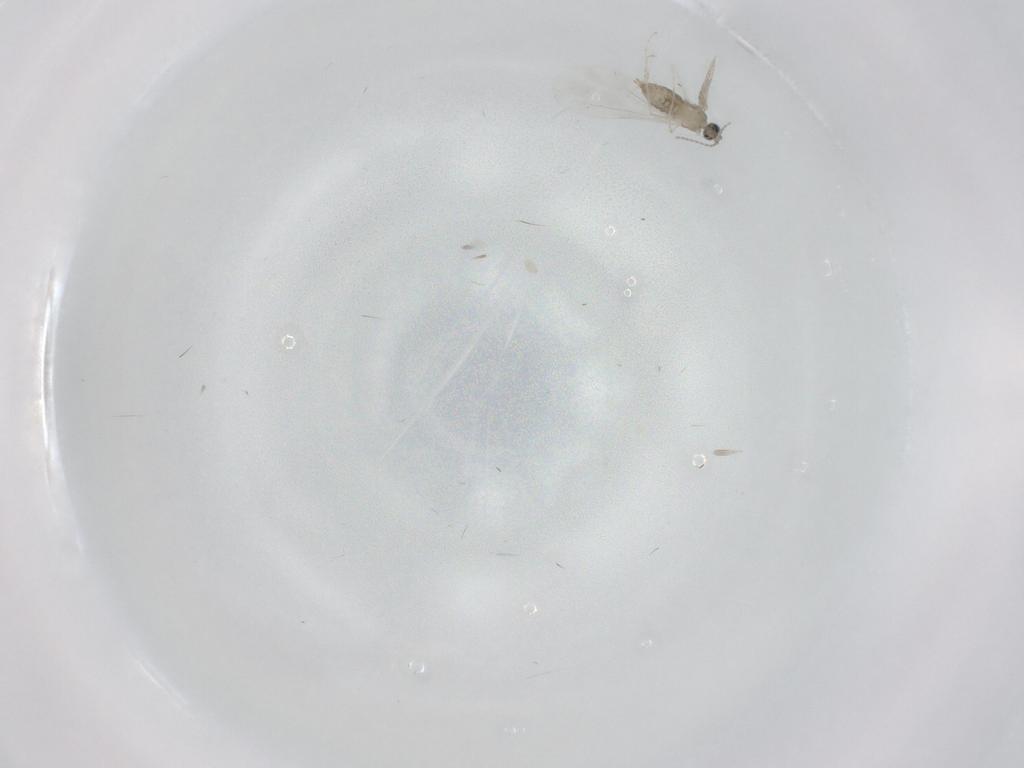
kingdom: Animalia
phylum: Arthropoda
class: Insecta
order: Diptera
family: Cecidomyiidae
